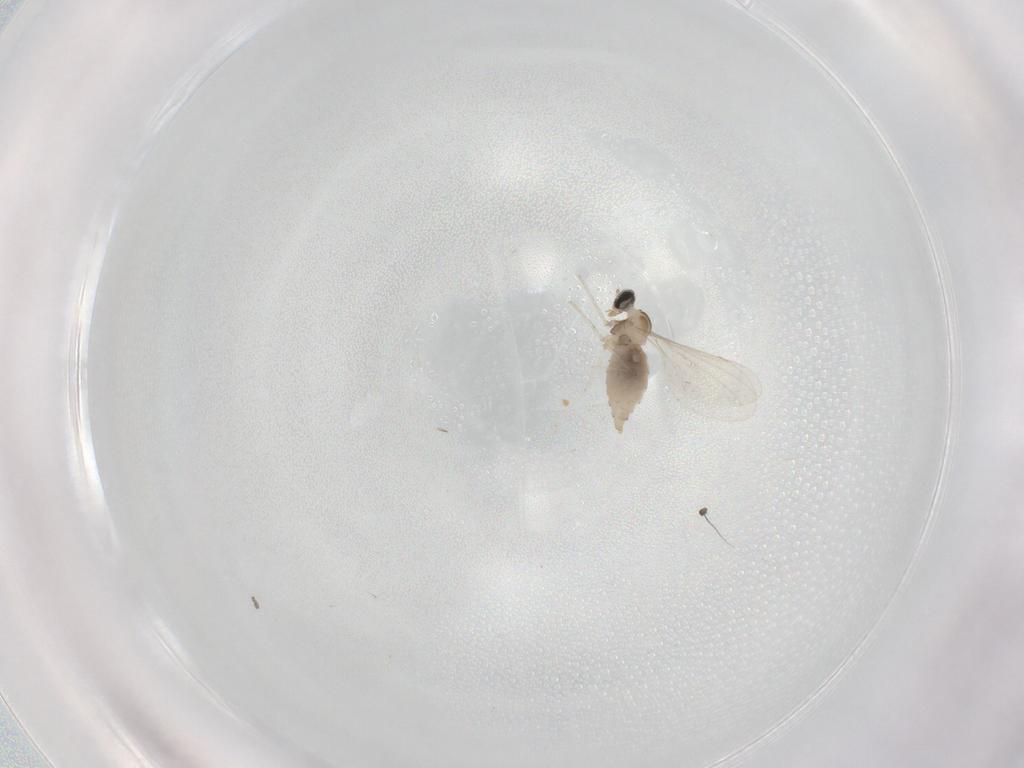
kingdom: Animalia
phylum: Arthropoda
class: Insecta
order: Diptera
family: Cecidomyiidae
